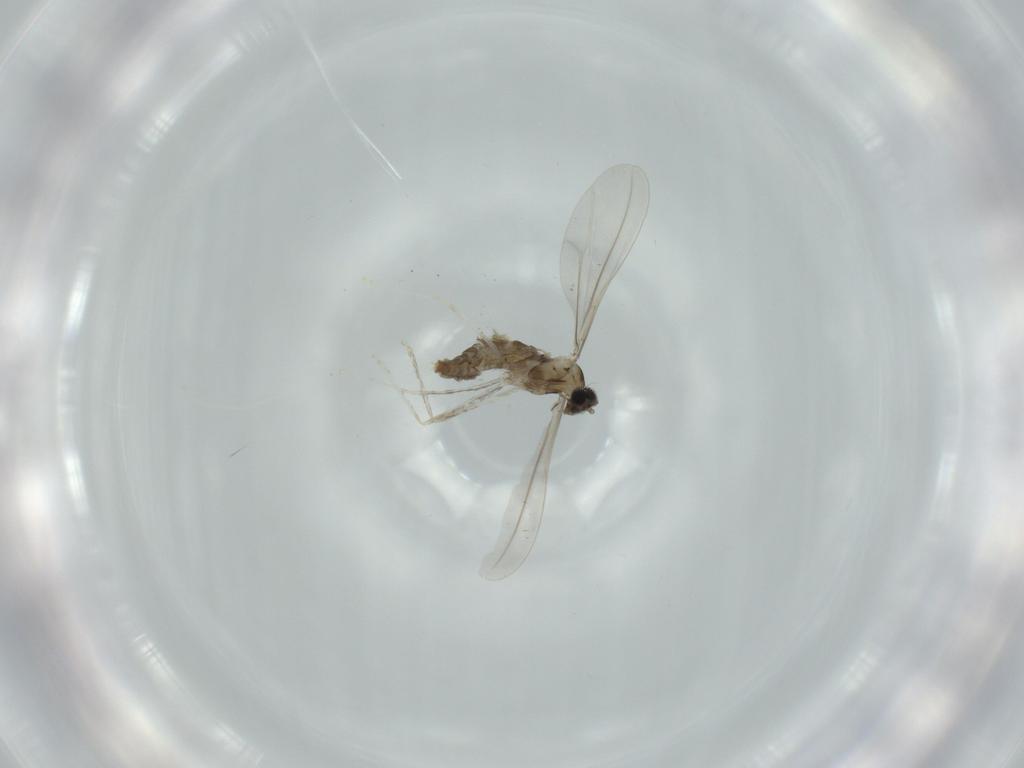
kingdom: Animalia
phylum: Arthropoda
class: Insecta
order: Diptera
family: Cecidomyiidae
